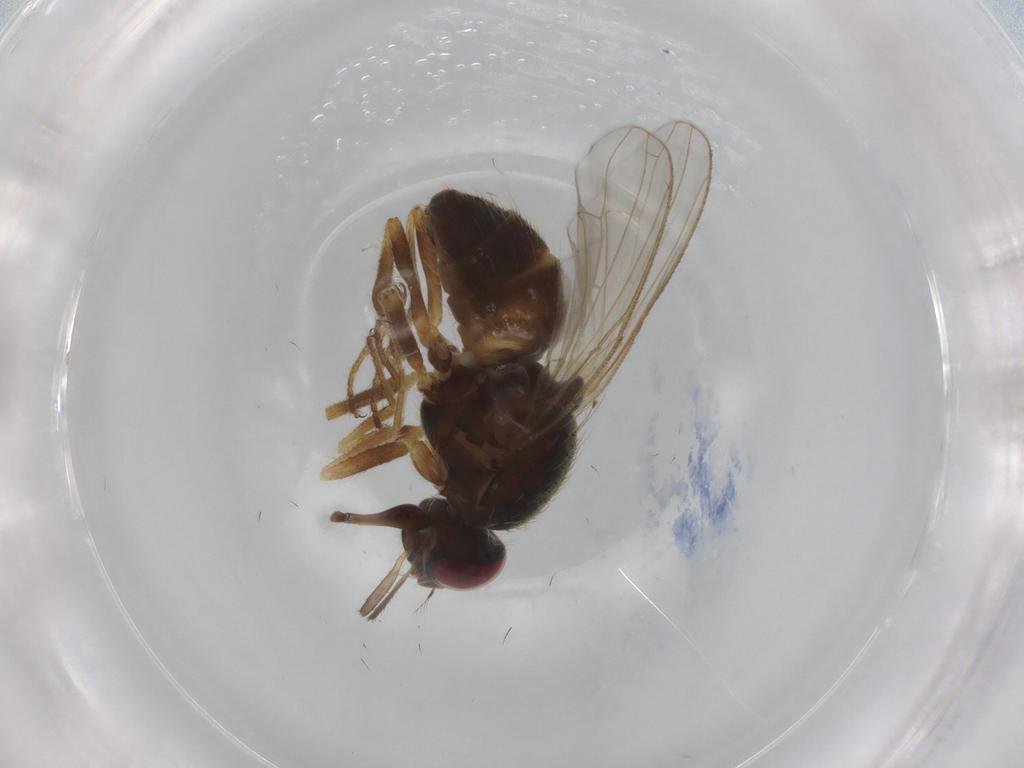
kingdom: Animalia
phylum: Arthropoda
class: Insecta
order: Diptera
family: Muscidae
